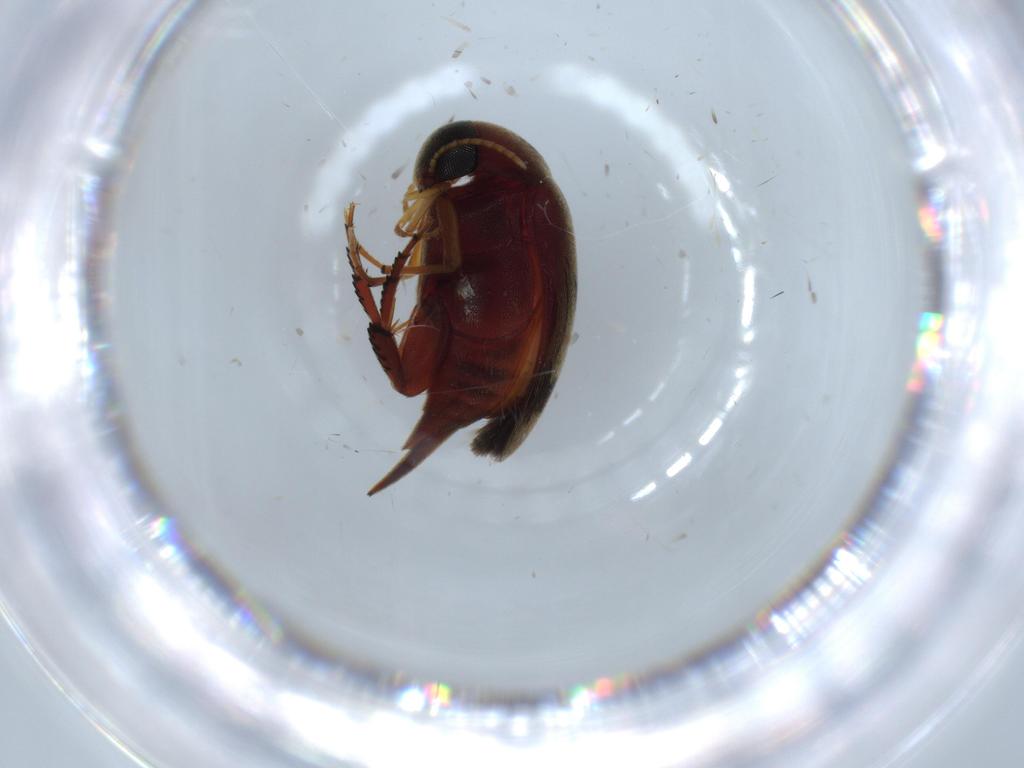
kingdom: Animalia
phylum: Arthropoda
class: Insecta
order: Coleoptera
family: Mordellidae
